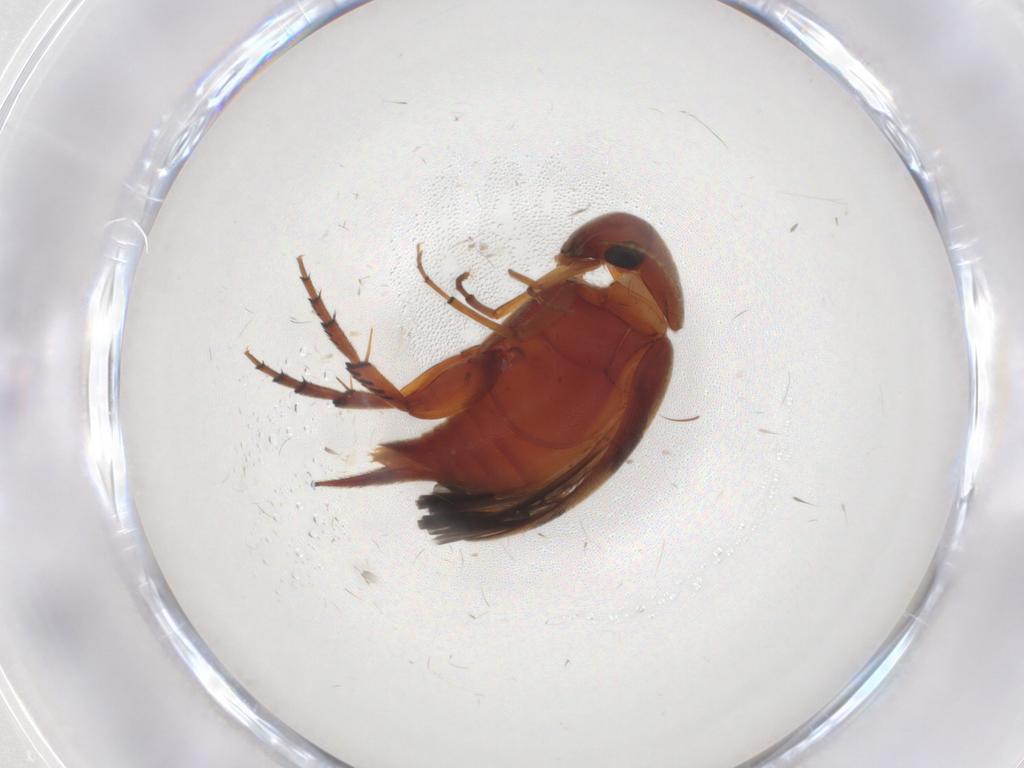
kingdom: Animalia
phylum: Arthropoda
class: Insecta
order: Coleoptera
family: Mordellidae
